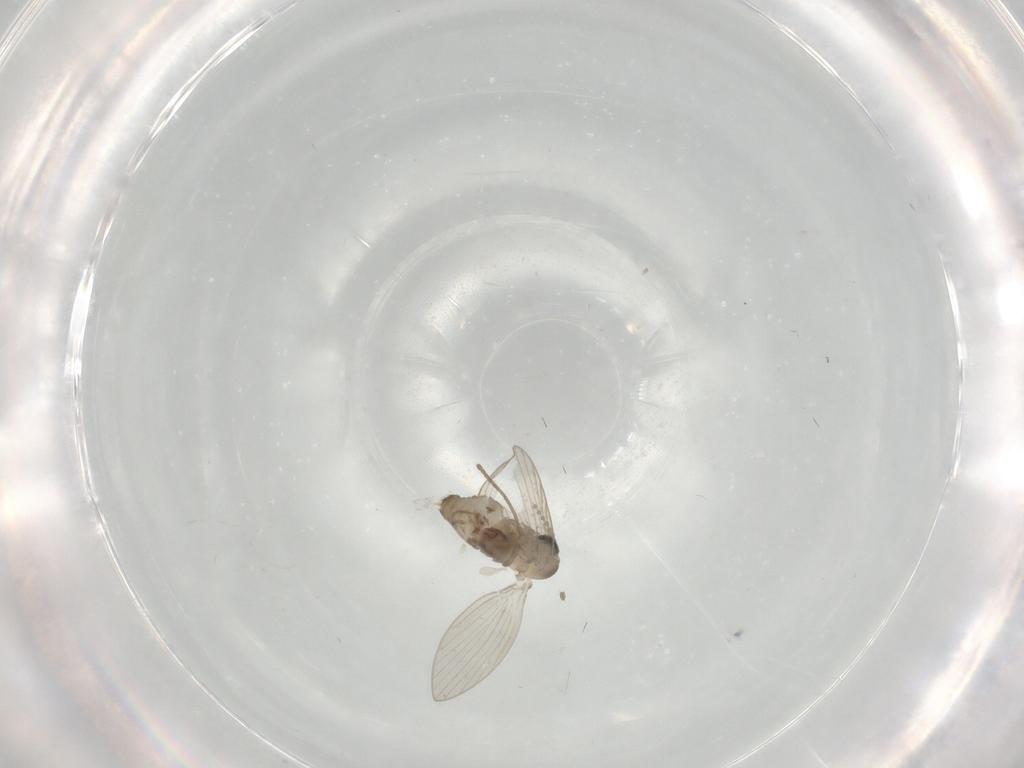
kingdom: Animalia
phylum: Arthropoda
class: Insecta
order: Diptera
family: Psychodidae
